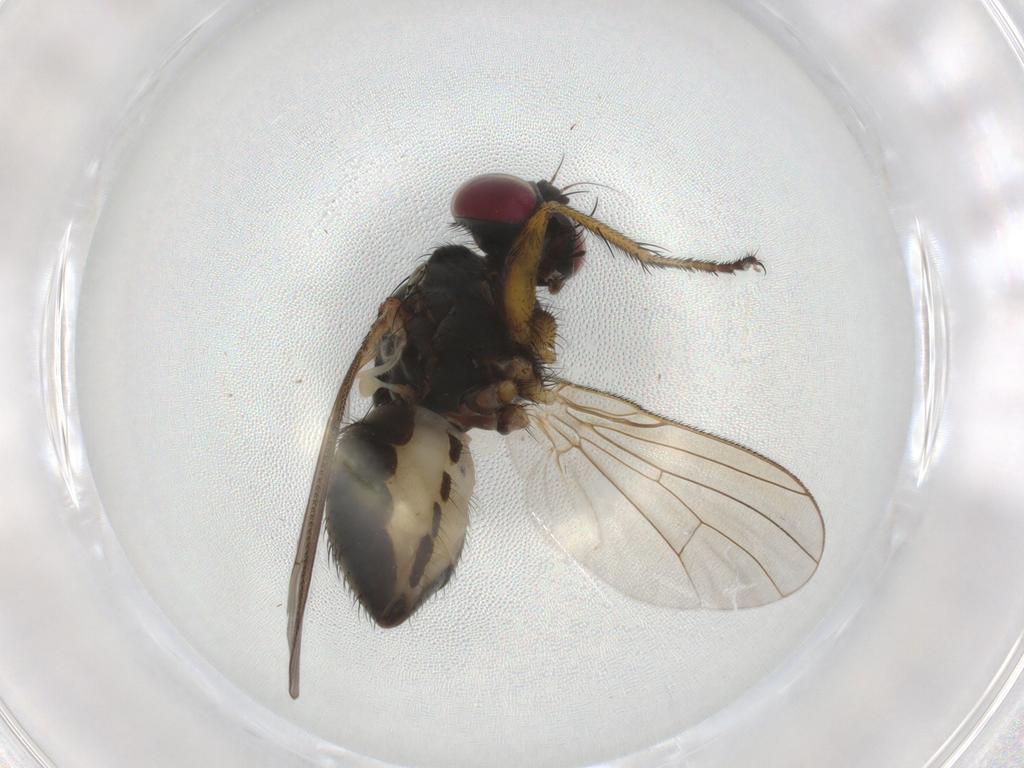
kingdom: Animalia
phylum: Arthropoda
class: Insecta
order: Diptera
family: Muscidae
